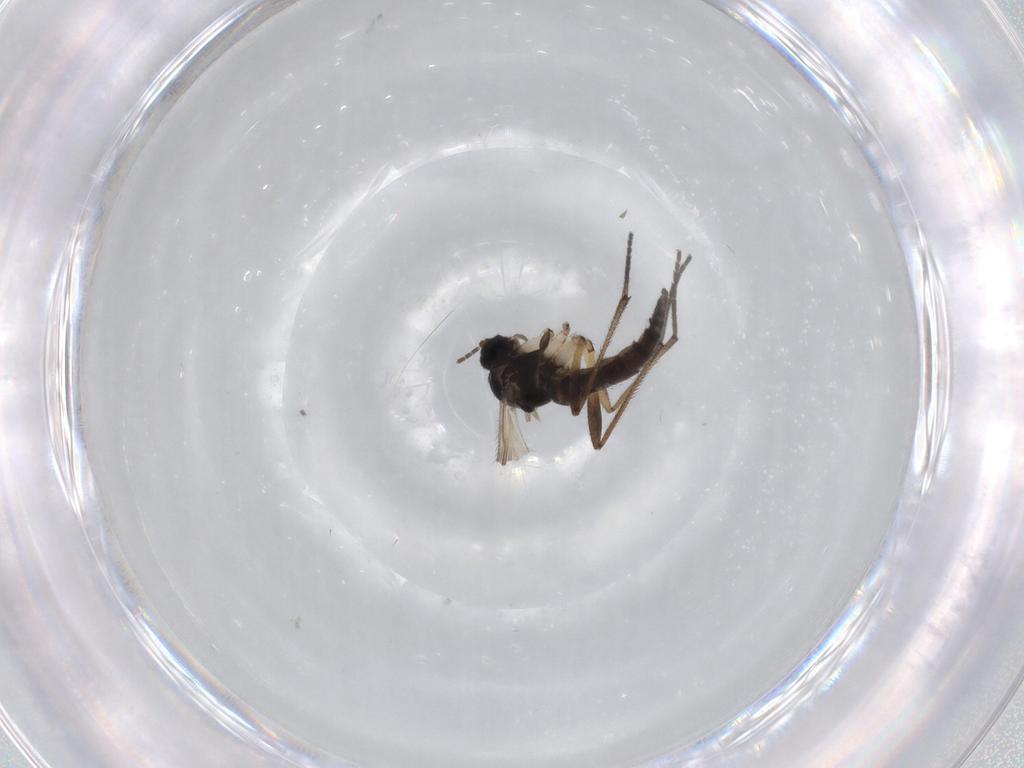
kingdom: Animalia
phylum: Arthropoda
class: Insecta
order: Diptera
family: Sciaridae
